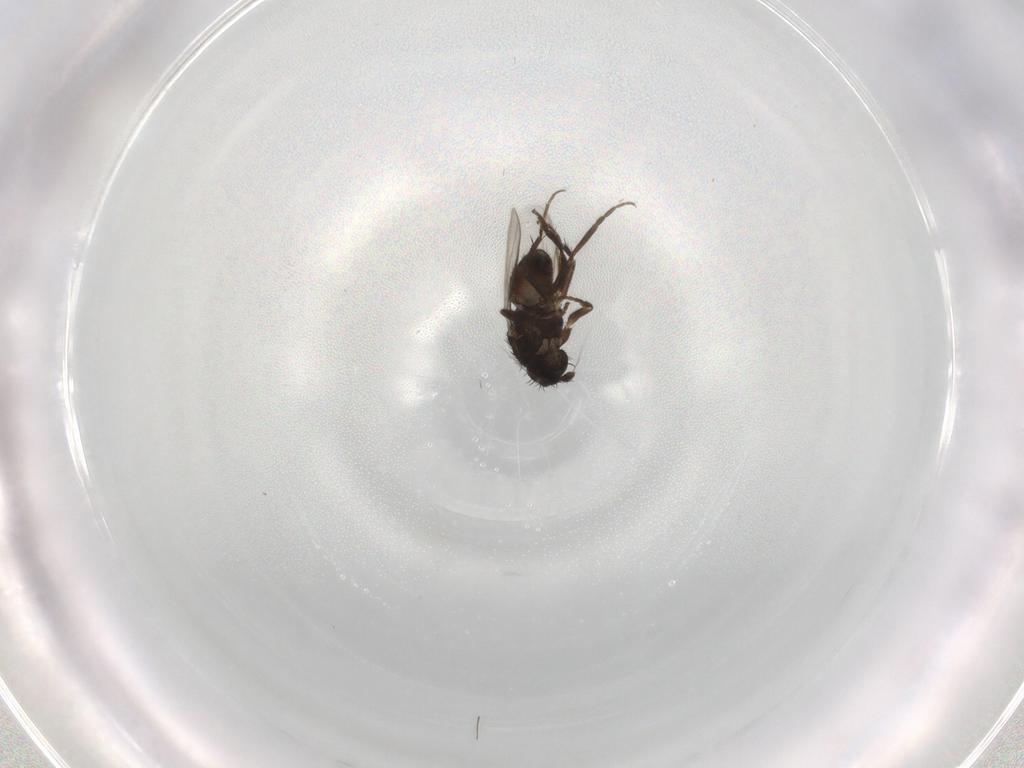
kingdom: Animalia
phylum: Arthropoda
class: Insecta
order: Diptera
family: Sphaeroceridae
